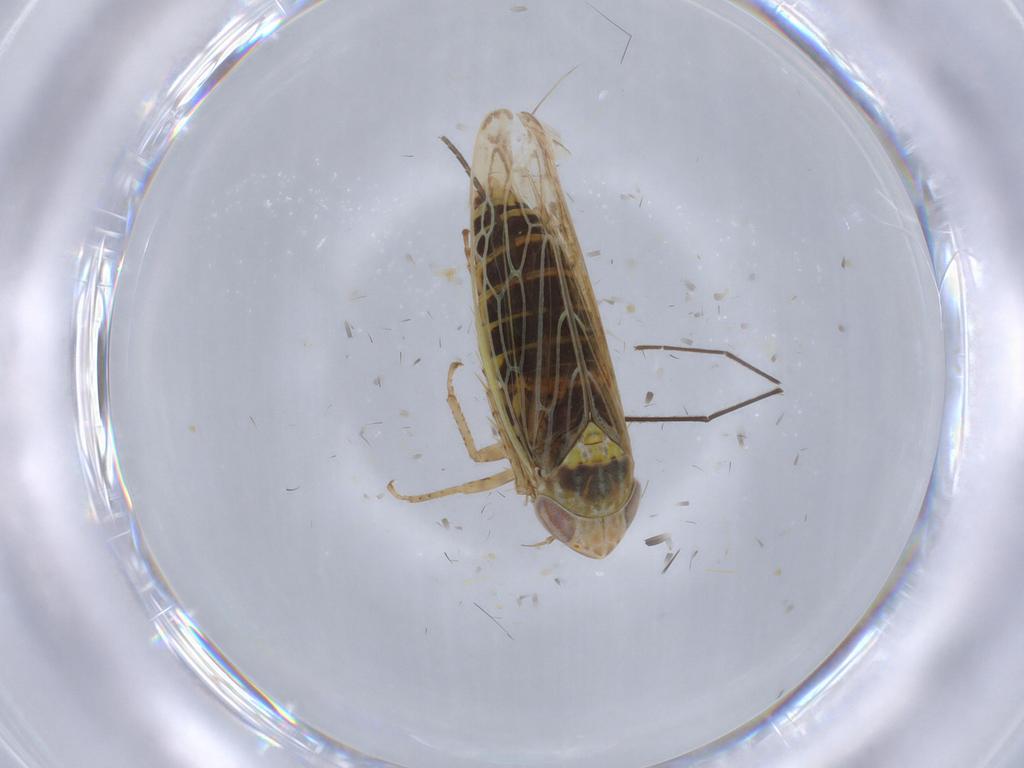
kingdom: Animalia
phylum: Arthropoda
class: Insecta
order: Hemiptera
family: Cicadellidae
